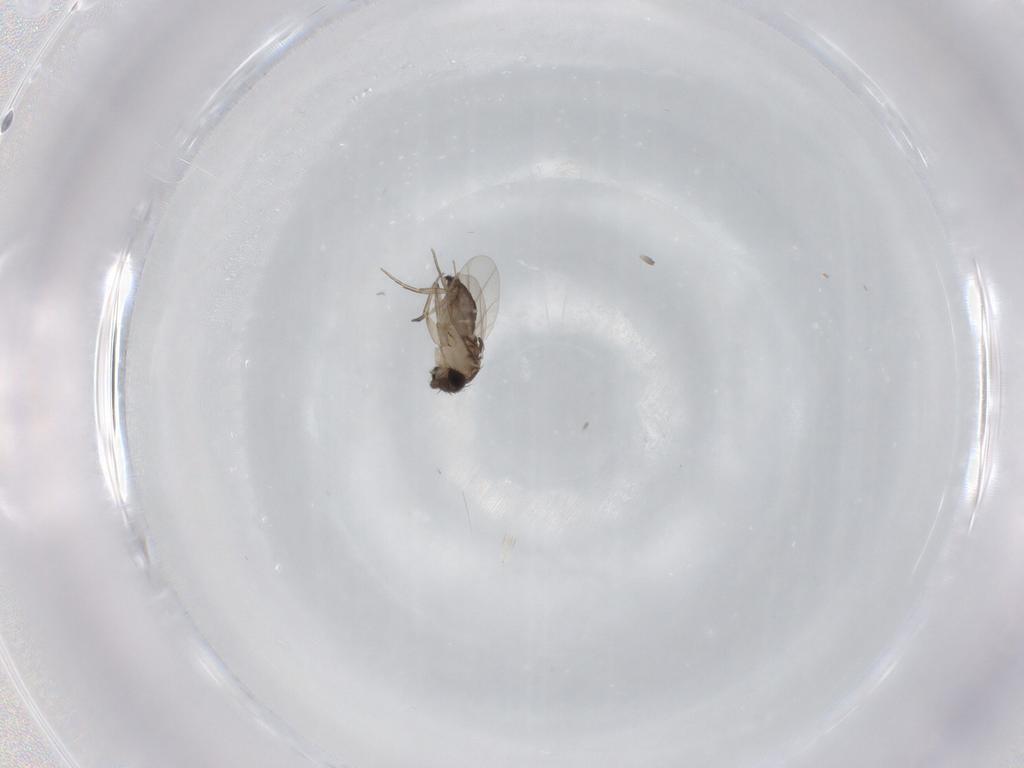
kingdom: Animalia
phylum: Arthropoda
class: Insecta
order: Diptera
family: Phoridae
